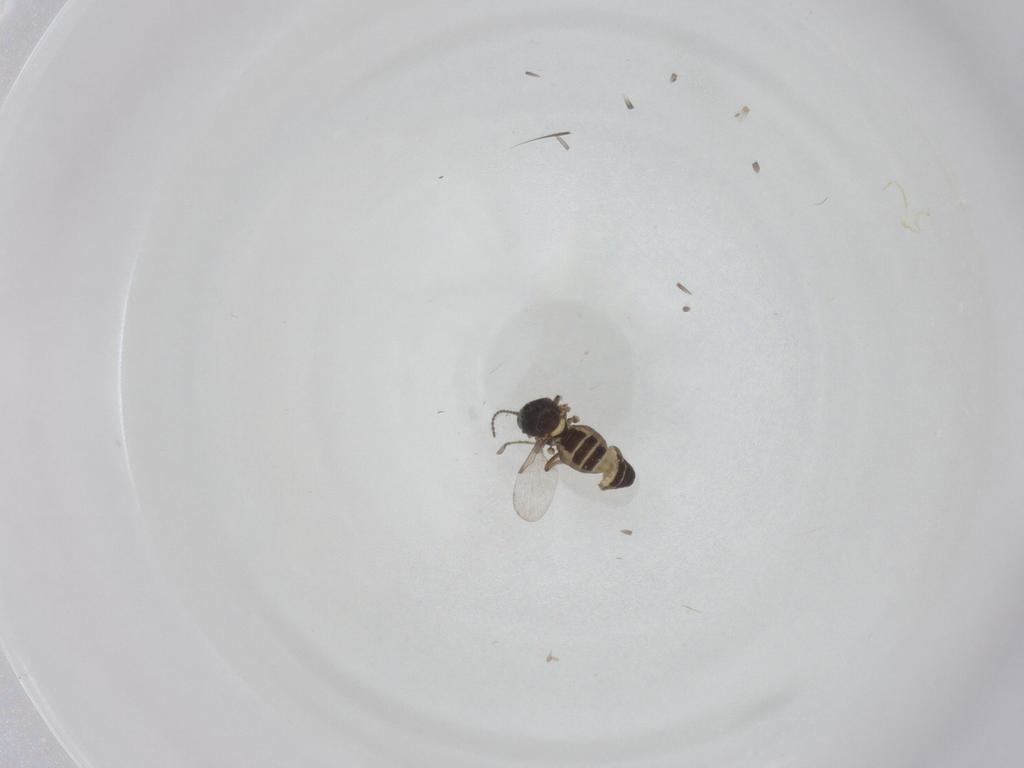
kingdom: Animalia
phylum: Arthropoda
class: Insecta
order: Diptera
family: Ceratopogonidae
